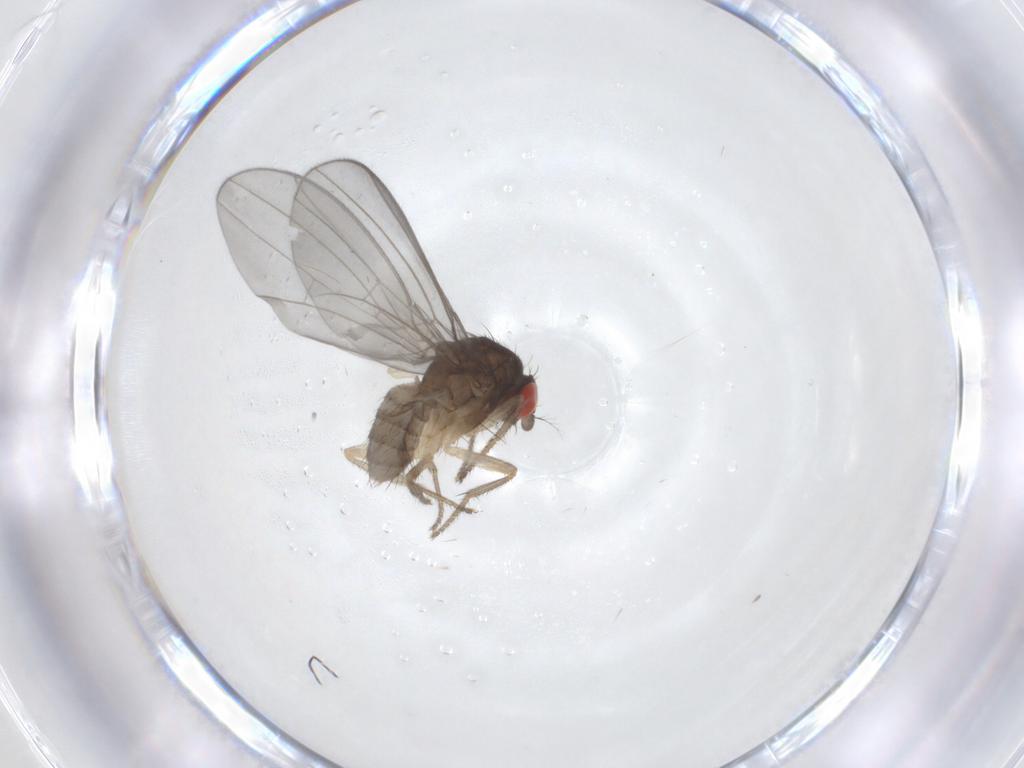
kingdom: Animalia
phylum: Arthropoda
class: Insecta
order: Diptera
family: Drosophilidae
